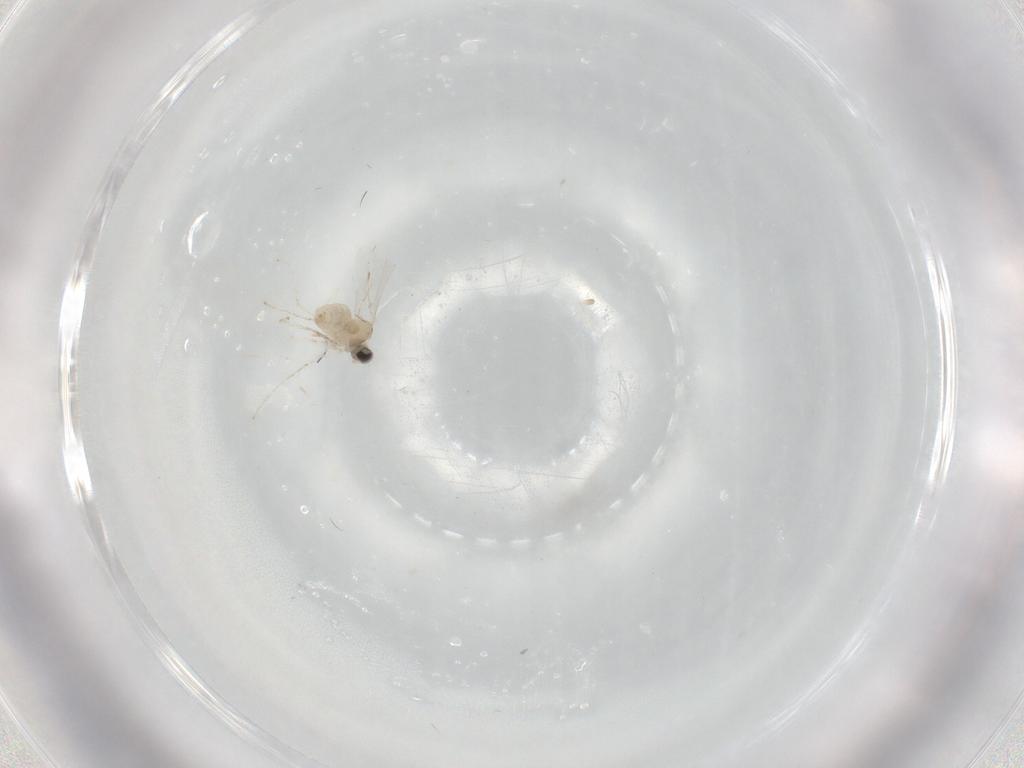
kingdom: Animalia
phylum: Arthropoda
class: Insecta
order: Diptera
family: Cecidomyiidae
